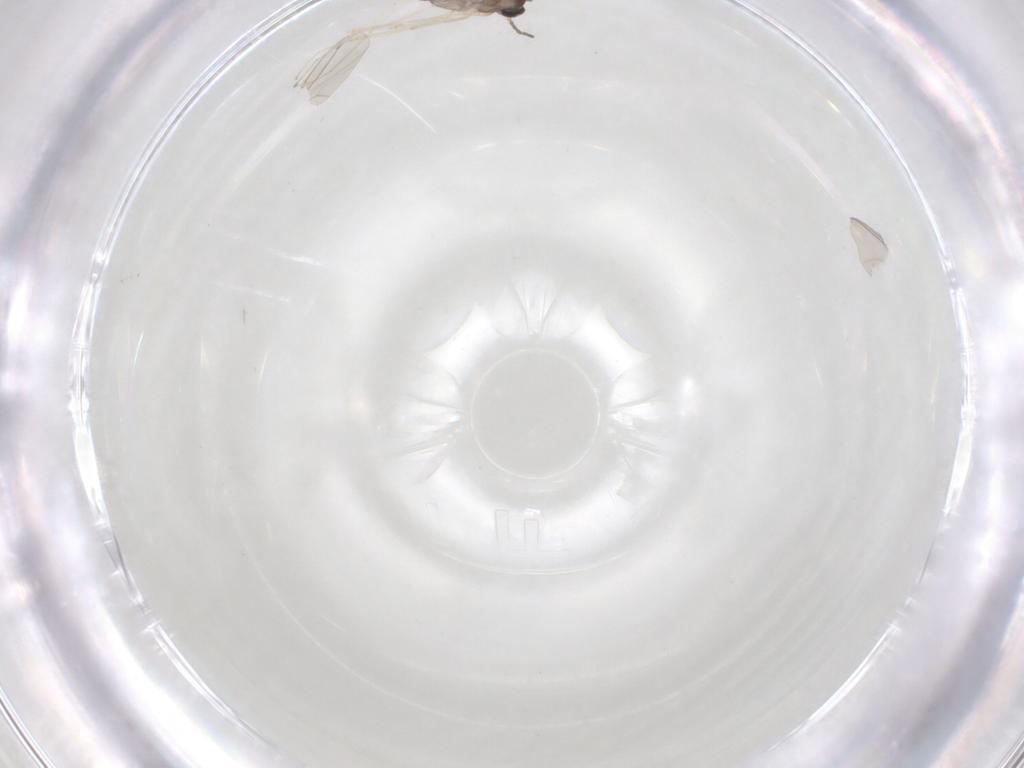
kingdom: Animalia
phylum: Arthropoda
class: Insecta
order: Diptera
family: Cecidomyiidae
